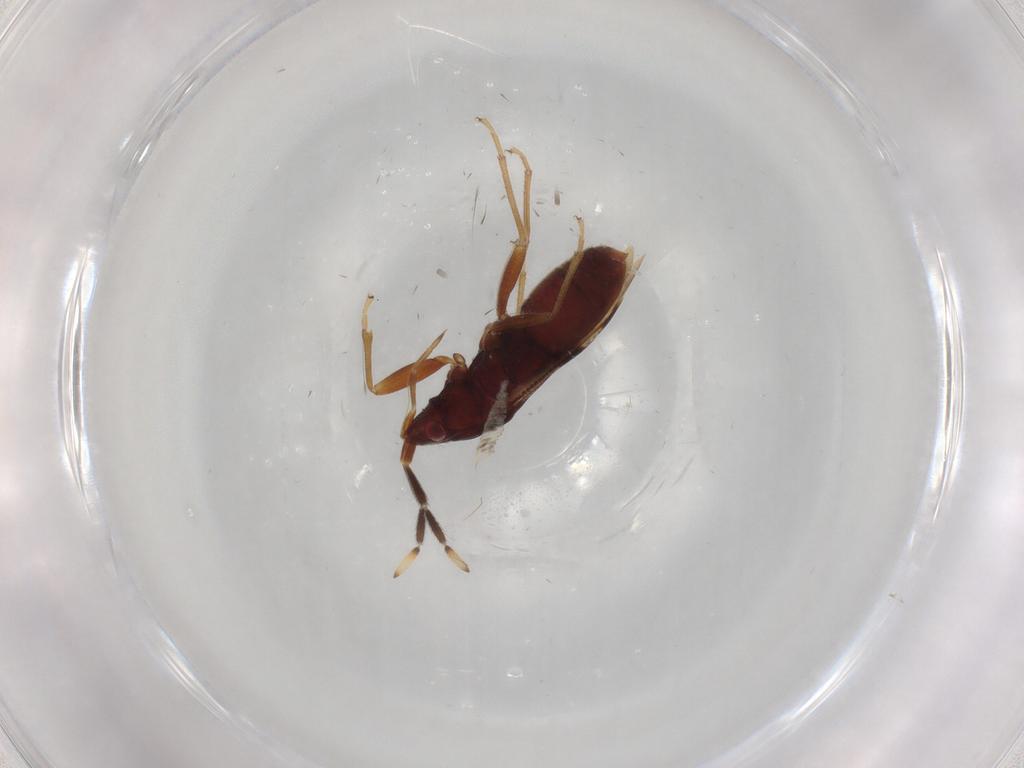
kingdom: Animalia
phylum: Arthropoda
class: Insecta
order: Hemiptera
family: Rhyparochromidae
